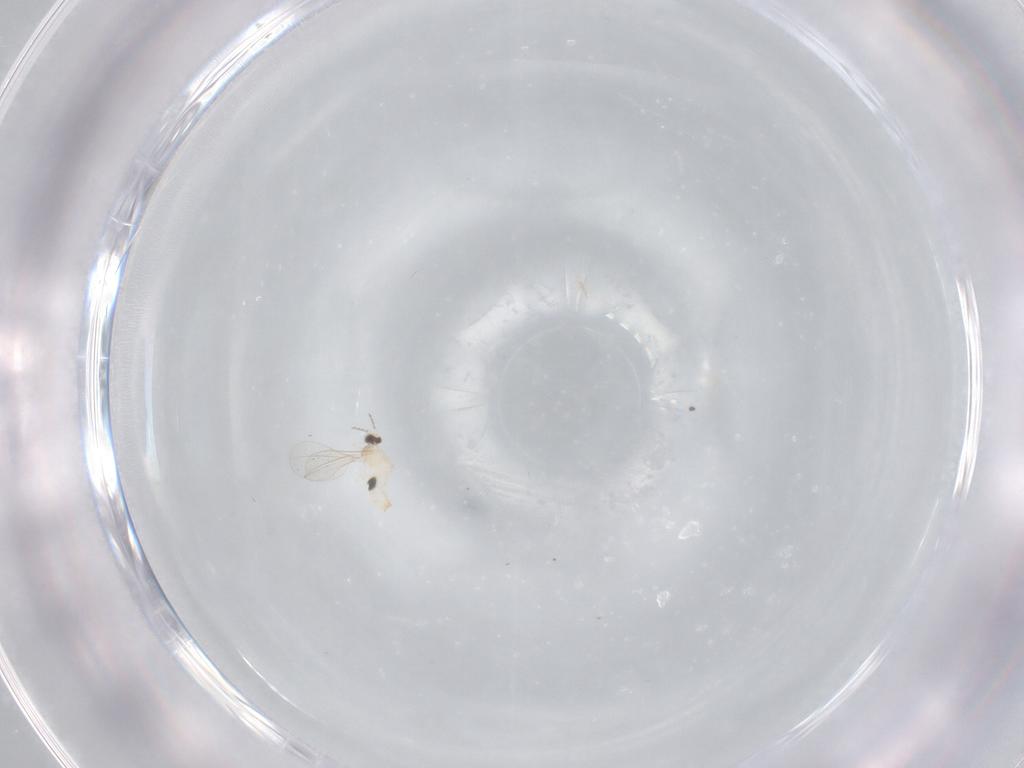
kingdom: Animalia
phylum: Arthropoda
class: Insecta
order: Diptera
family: Cecidomyiidae
